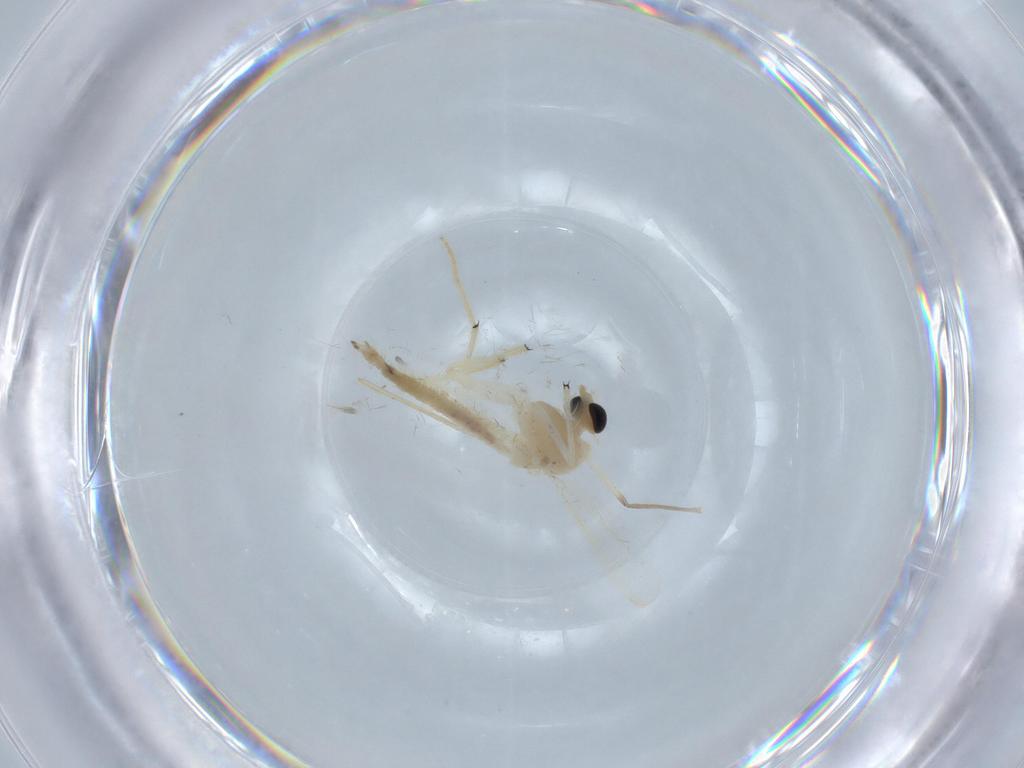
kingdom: Animalia
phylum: Arthropoda
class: Insecta
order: Diptera
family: Chironomidae
